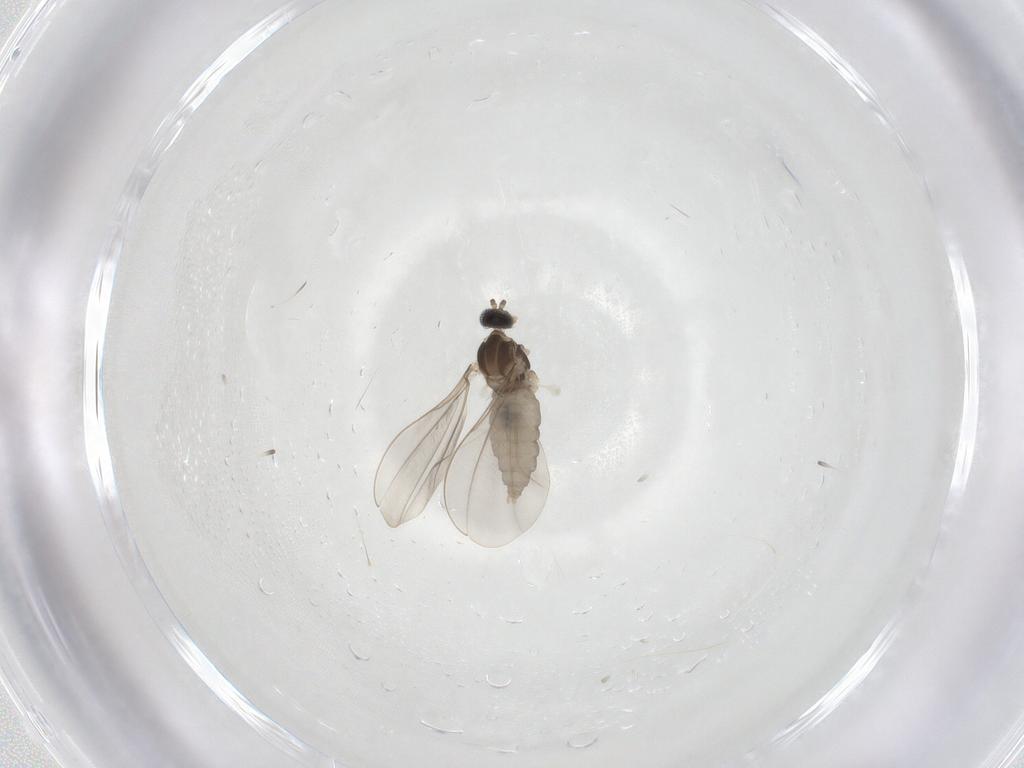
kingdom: Animalia
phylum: Arthropoda
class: Insecta
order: Diptera
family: Cecidomyiidae
